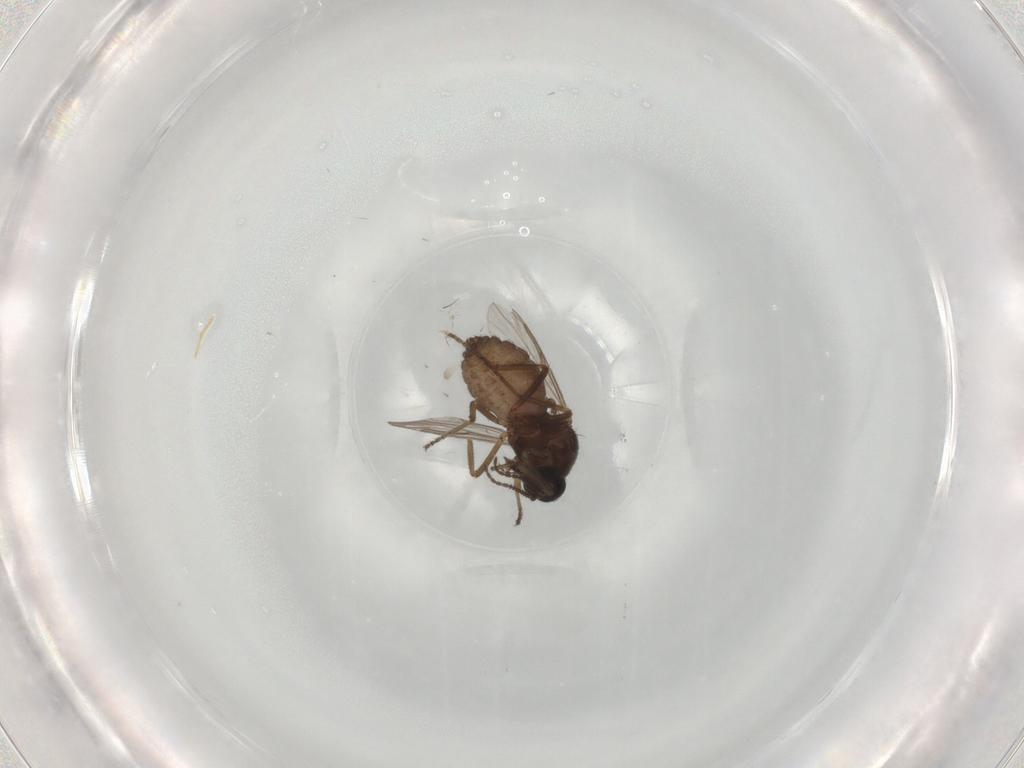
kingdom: Animalia
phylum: Arthropoda
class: Insecta
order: Diptera
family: Ceratopogonidae
